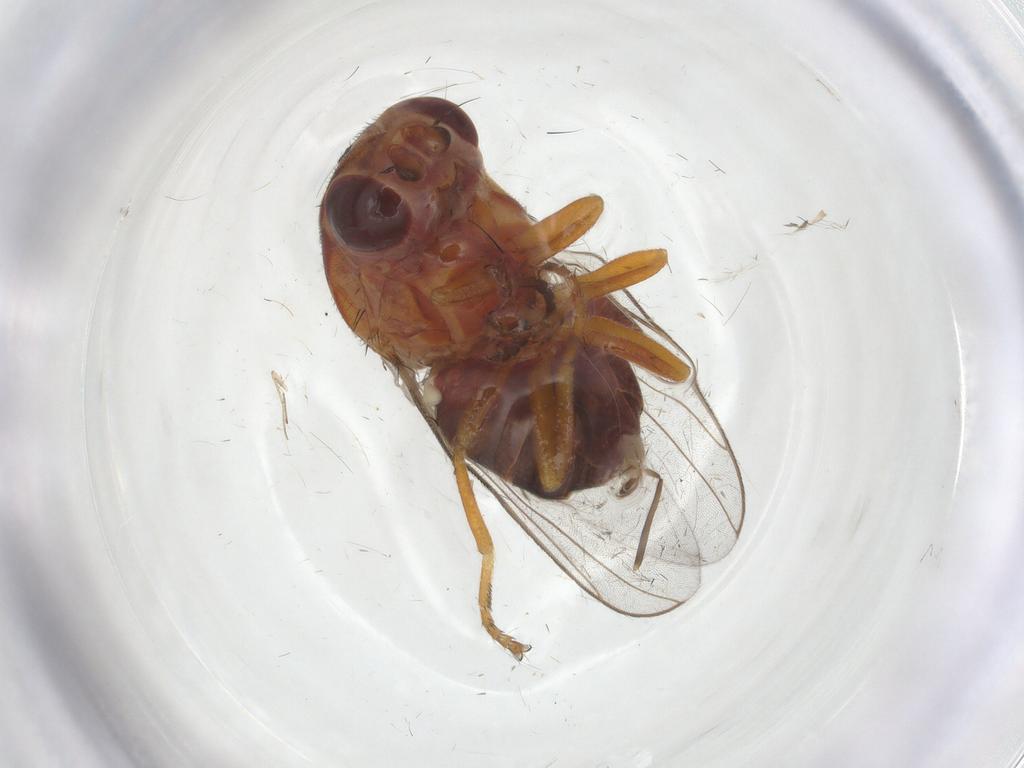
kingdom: Animalia
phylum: Arthropoda
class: Insecta
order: Diptera
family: Chloropidae
